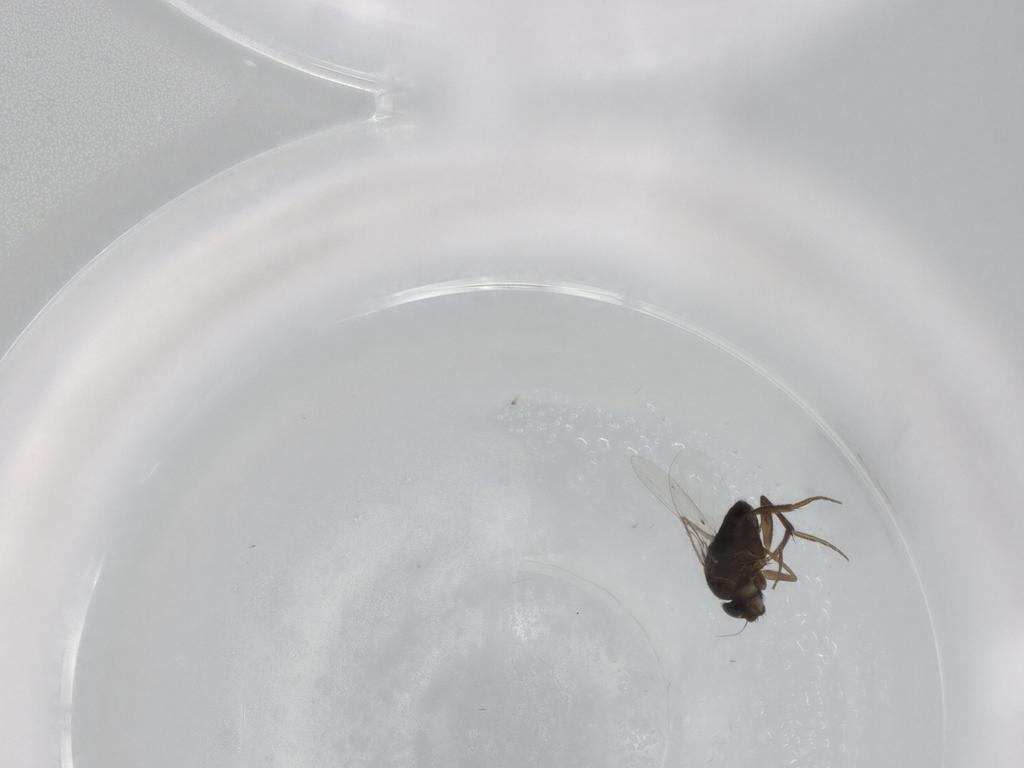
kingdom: Animalia
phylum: Arthropoda
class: Insecta
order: Diptera
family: Phoridae
